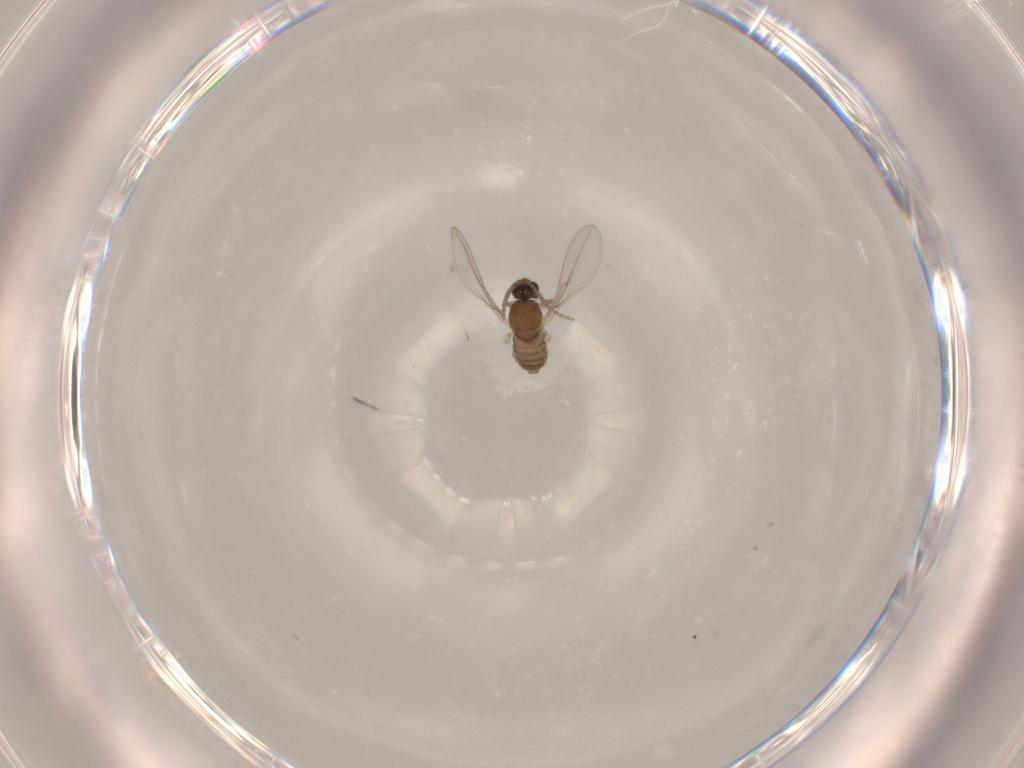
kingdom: Animalia
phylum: Arthropoda
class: Insecta
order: Diptera
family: Cecidomyiidae
